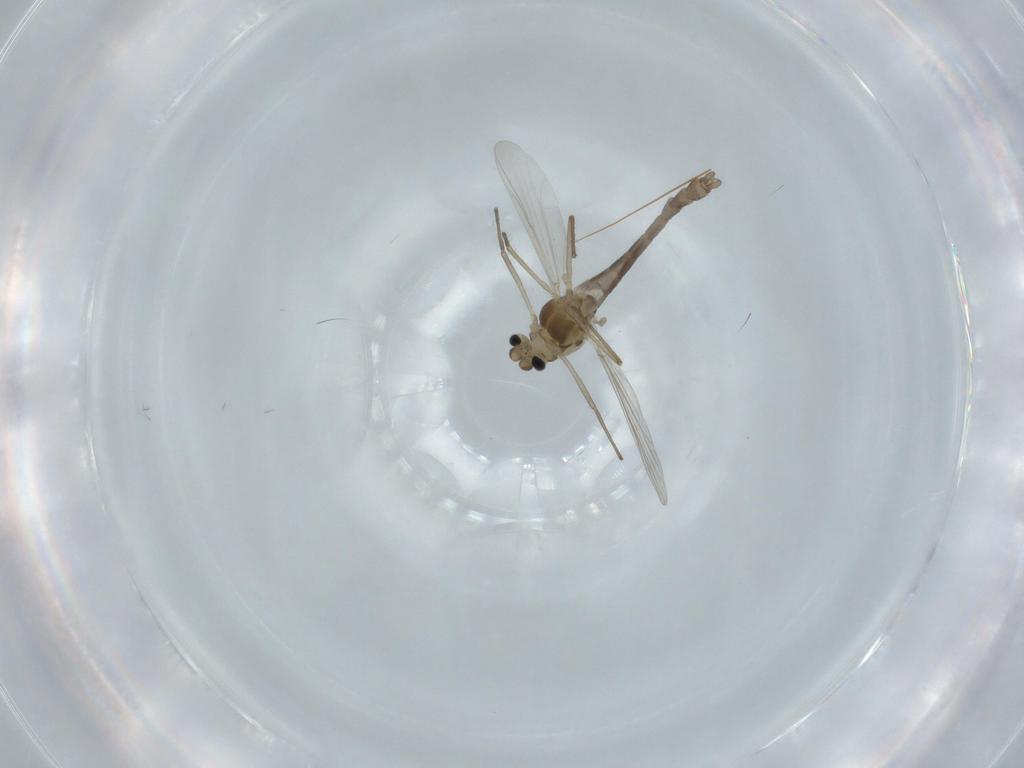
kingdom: Animalia
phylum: Arthropoda
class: Insecta
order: Diptera
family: Chironomidae
